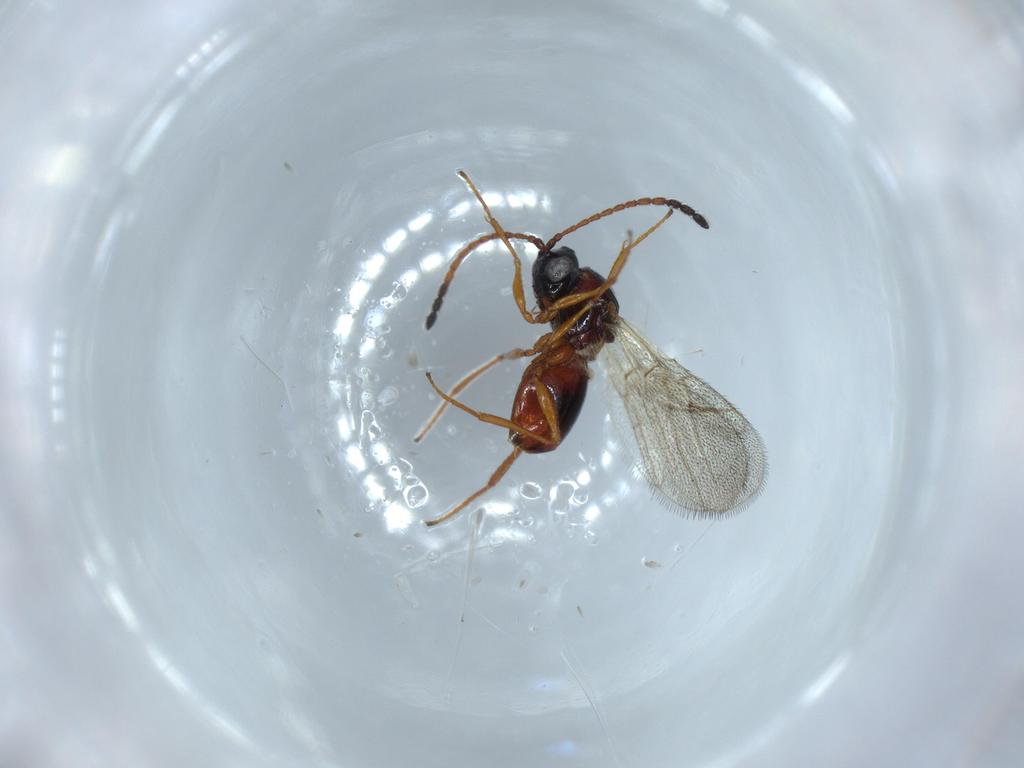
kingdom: Animalia
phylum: Arthropoda
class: Insecta
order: Hymenoptera
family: Figitidae
